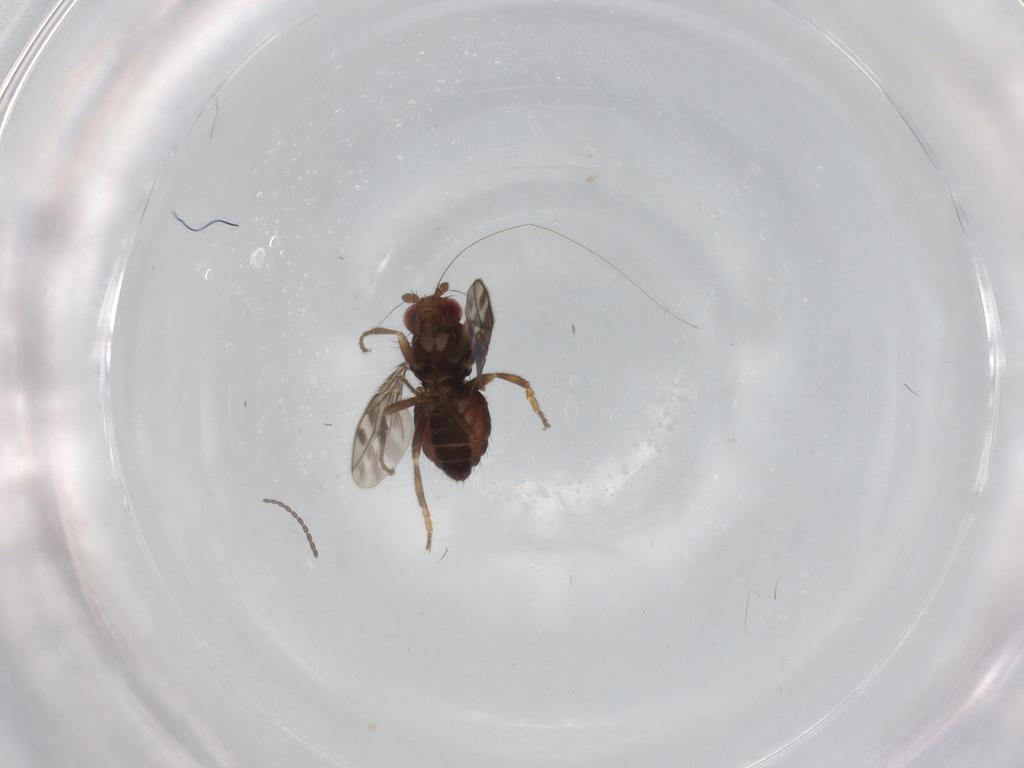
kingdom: Animalia
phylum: Arthropoda
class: Insecta
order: Diptera
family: Sphaeroceridae
